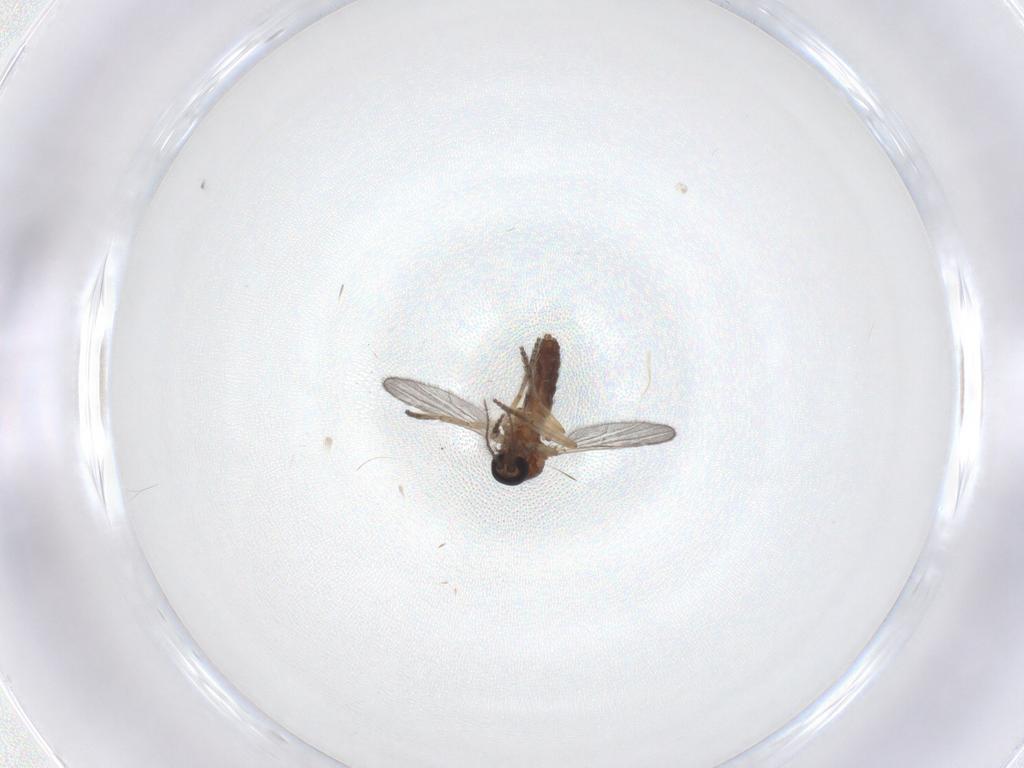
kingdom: Animalia
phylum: Arthropoda
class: Insecta
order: Diptera
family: Ceratopogonidae
